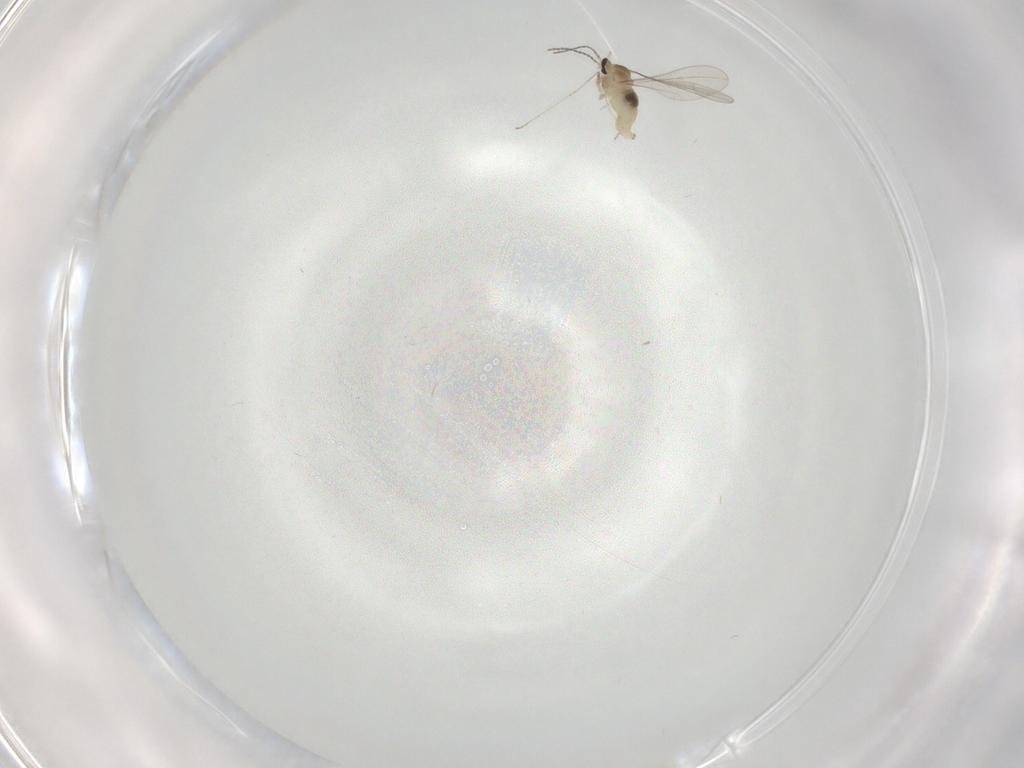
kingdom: Animalia
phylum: Arthropoda
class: Insecta
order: Diptera
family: Cecidomyiidae
